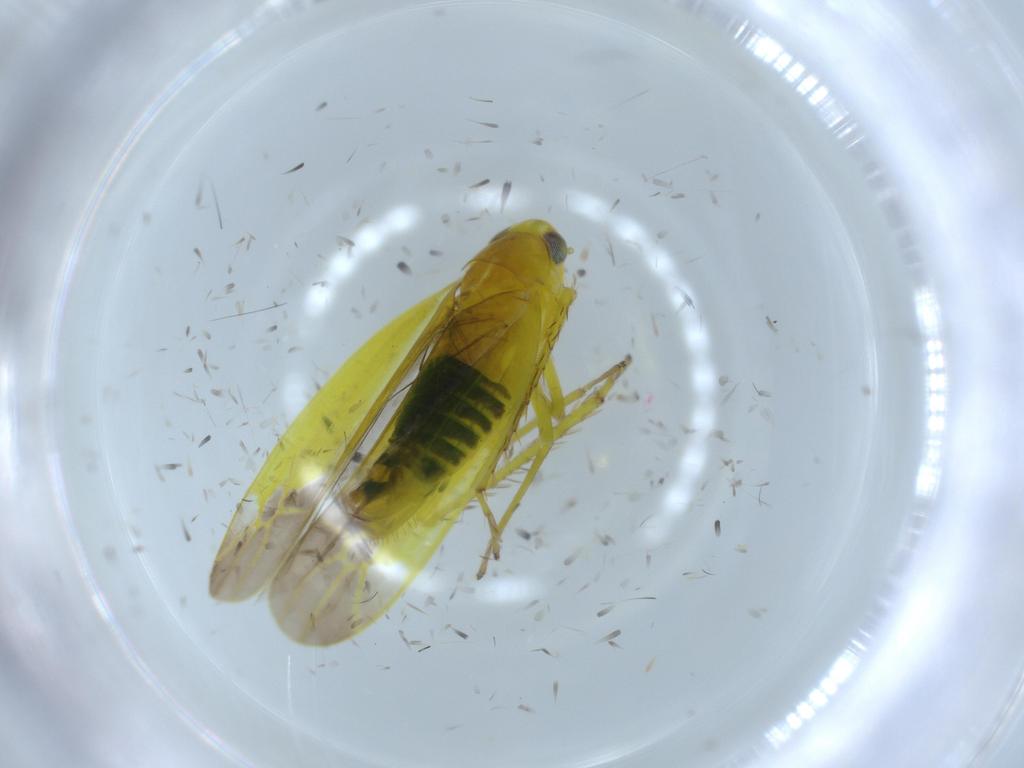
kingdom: Animalia
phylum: Arthropoda
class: Insecta
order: Hemiptera
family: Cicadellidae
